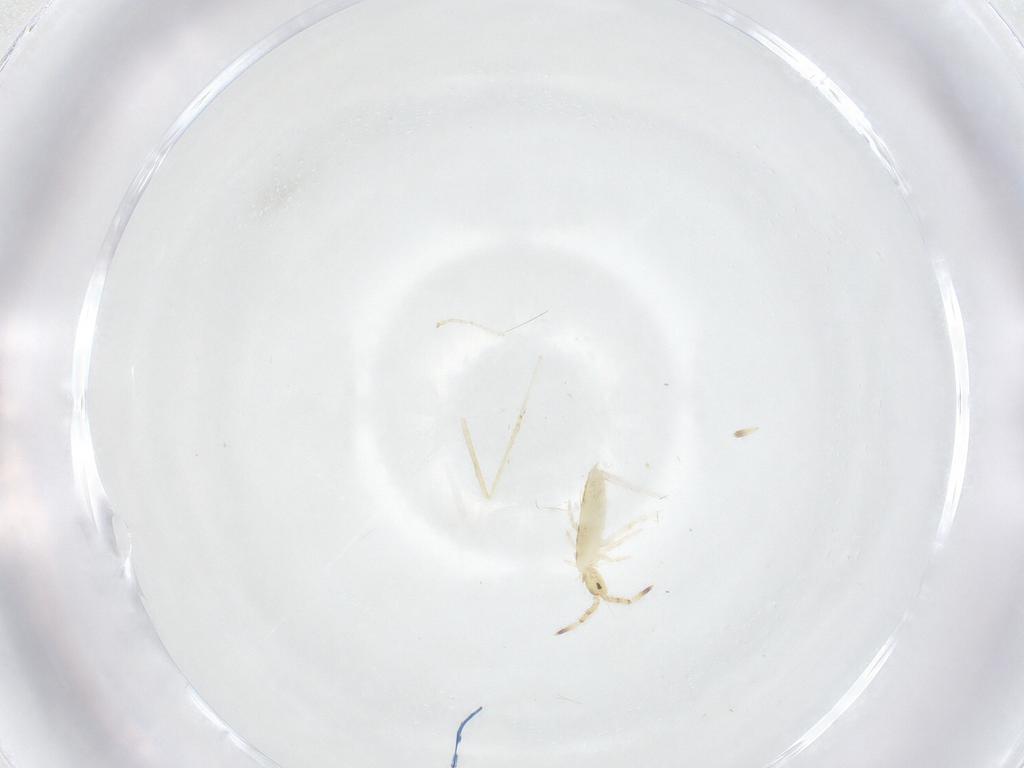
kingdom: Animalia
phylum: Arthropoda
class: Collembola
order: Entomobryomorpha
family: Entomobryidae
